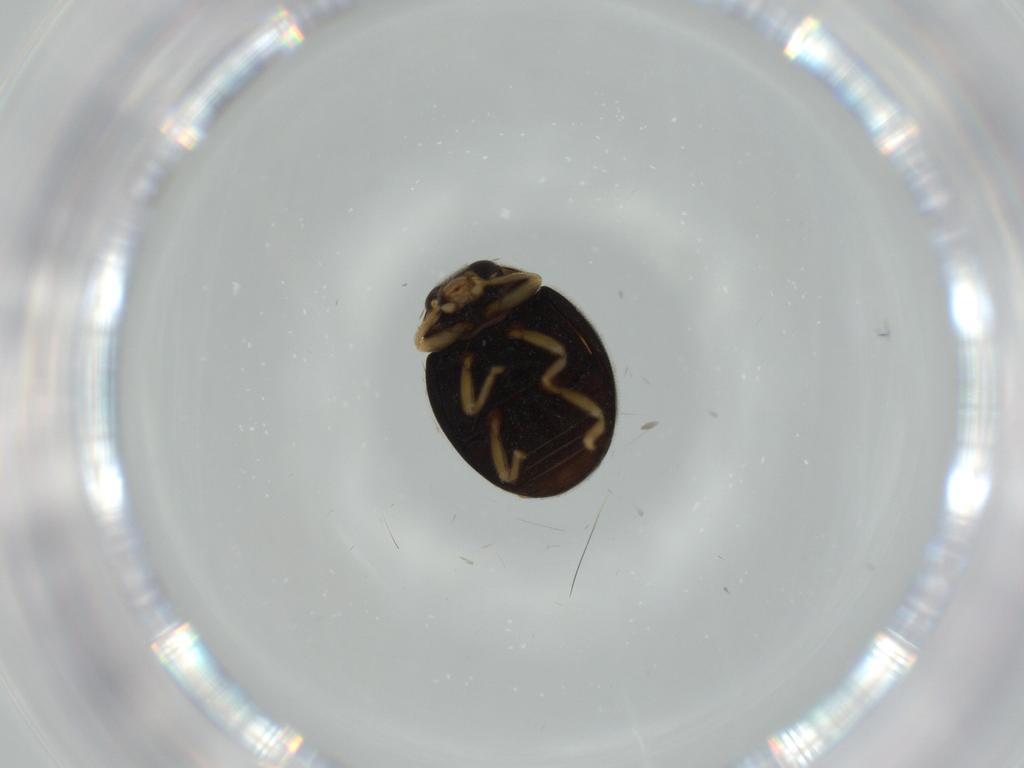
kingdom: Animalia
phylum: Arthropoda
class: Insecta
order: Coleoptera
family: Coccinellidae
